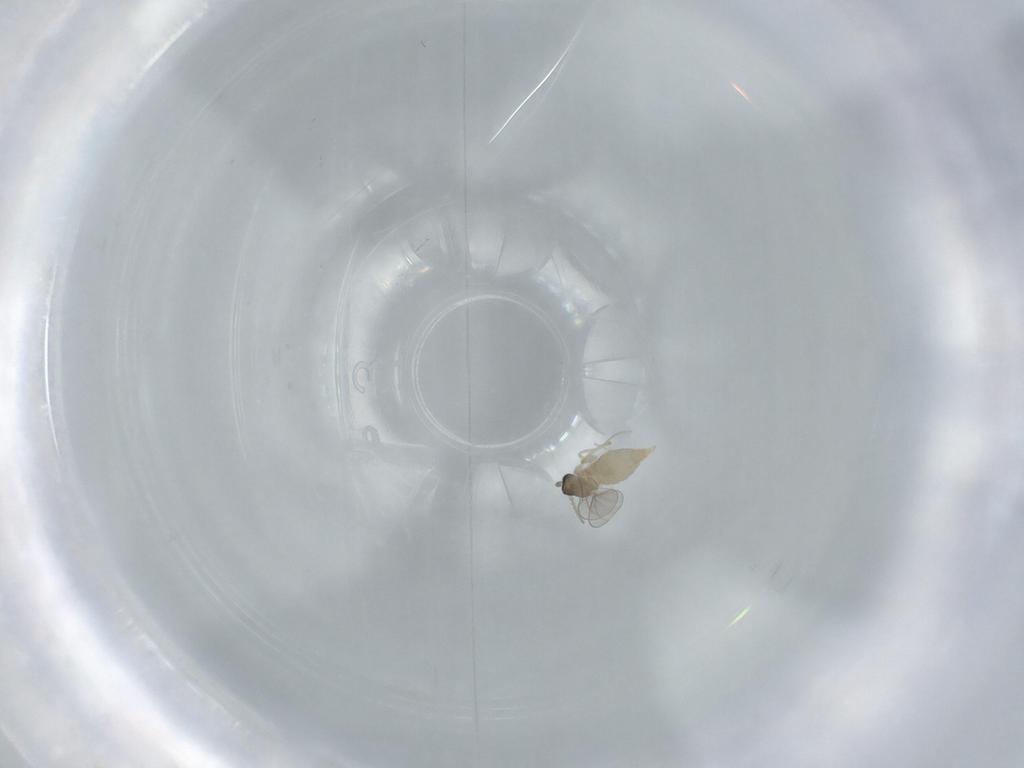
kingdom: Animalia
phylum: Arthropoda
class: Insecta
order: Diptera
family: Cecidomyiidae
